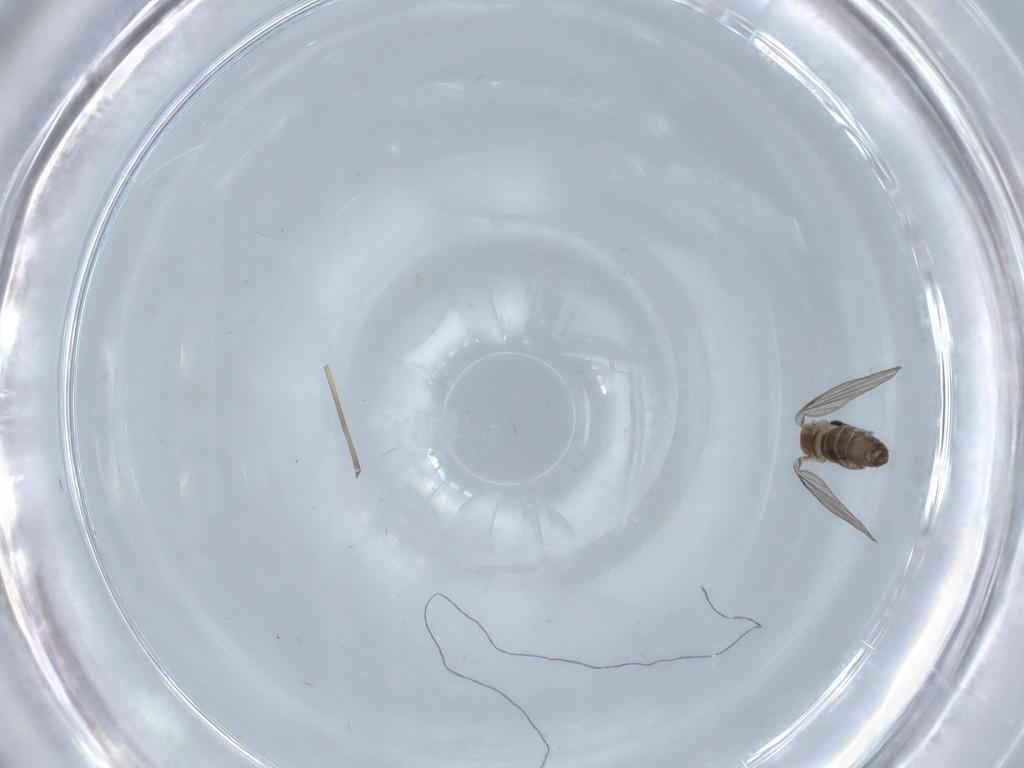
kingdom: Animalia
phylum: Arthropoda
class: Insecta
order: Diptera
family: Psychodidae
